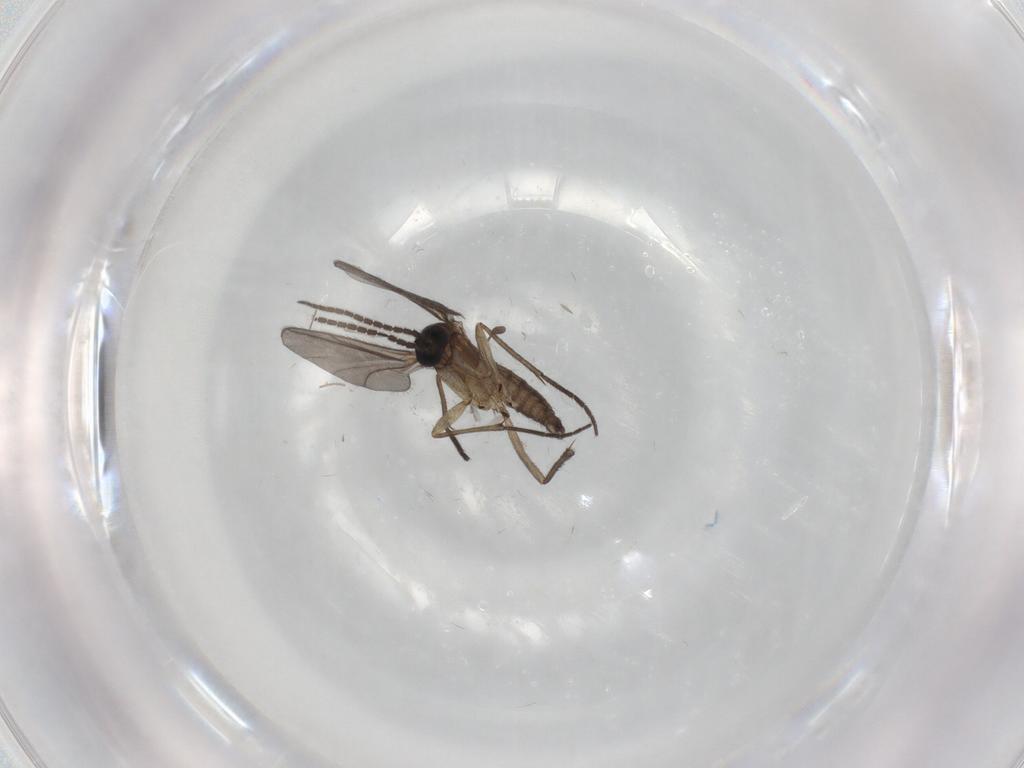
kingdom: Animalia
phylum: Arthropoda
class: Insecta
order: Diptera
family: Sciaridae
